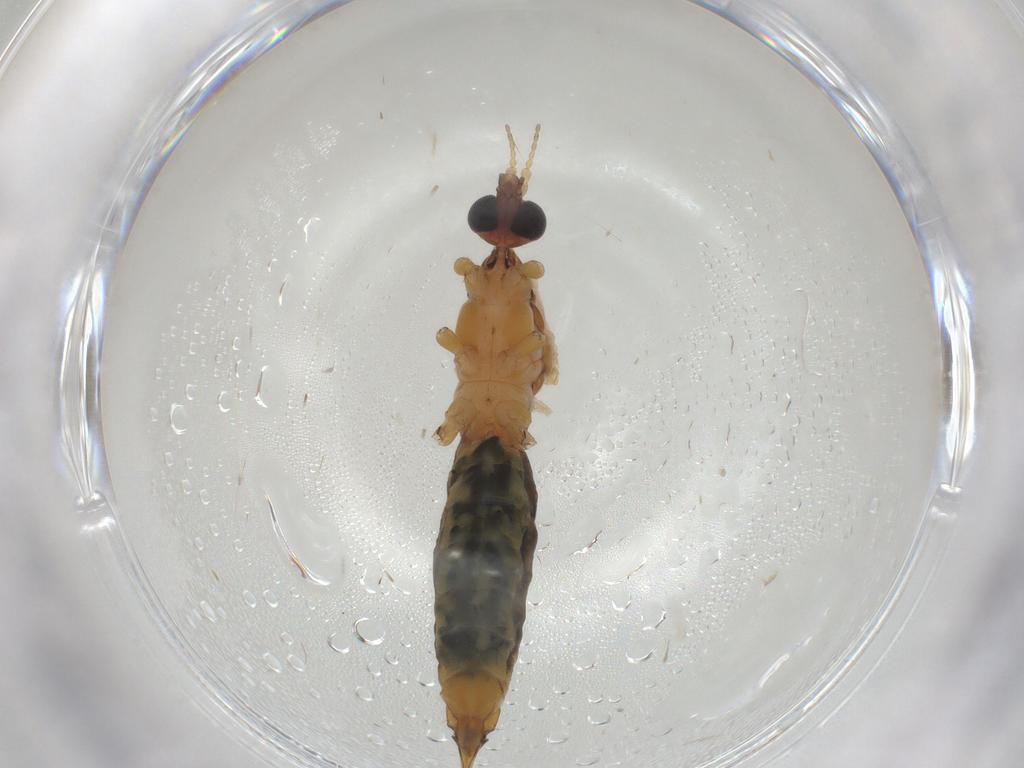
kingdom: Animalia
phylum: Arthropoda
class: Insecta
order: Diptera
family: Limoniidae
